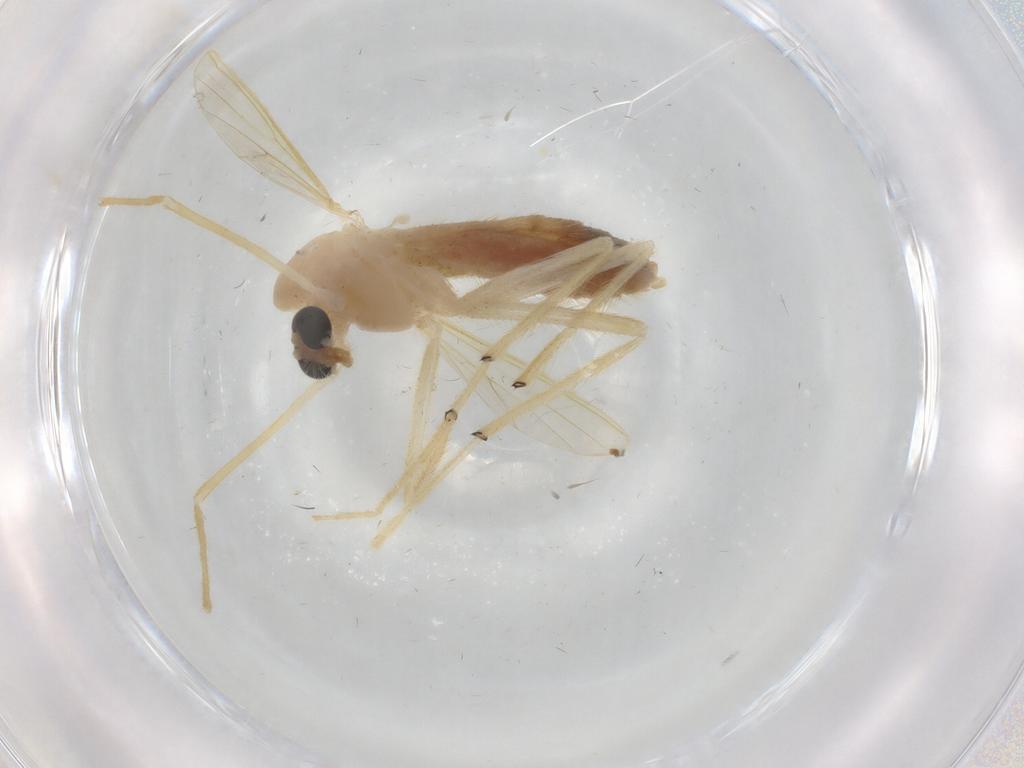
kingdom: Animalia
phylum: Arthropoda
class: Insecta
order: Diptera
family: Chironomidae
